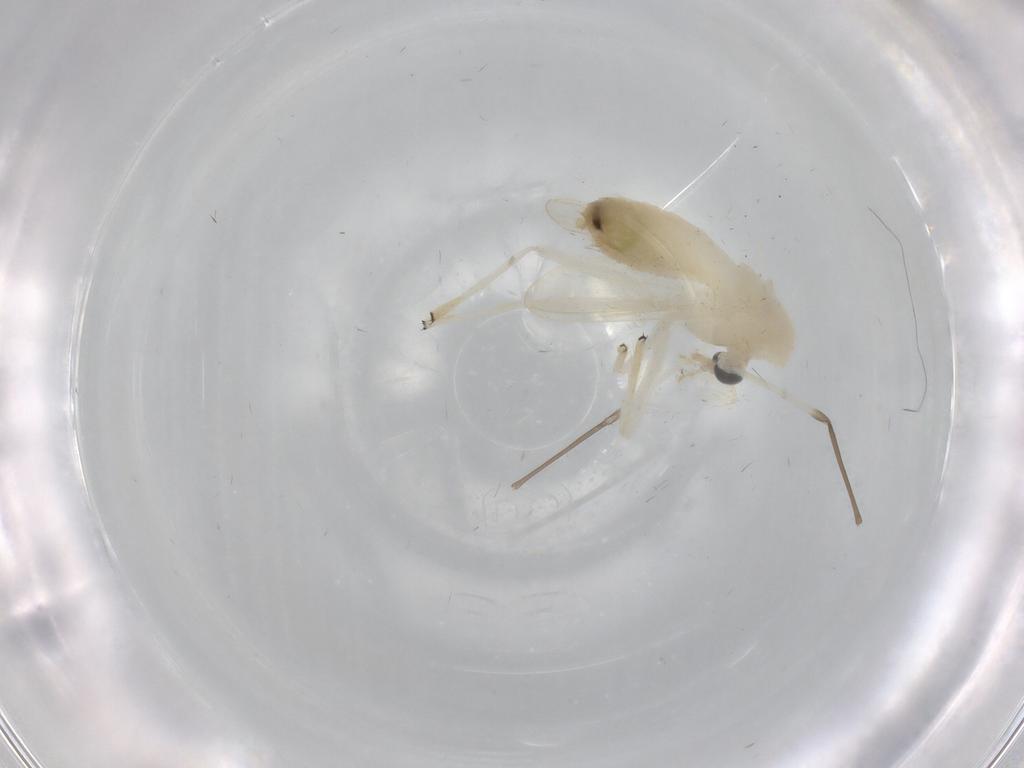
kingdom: Animalia
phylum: Arthropoda
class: Insecta
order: Diptera
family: Chironomidae
